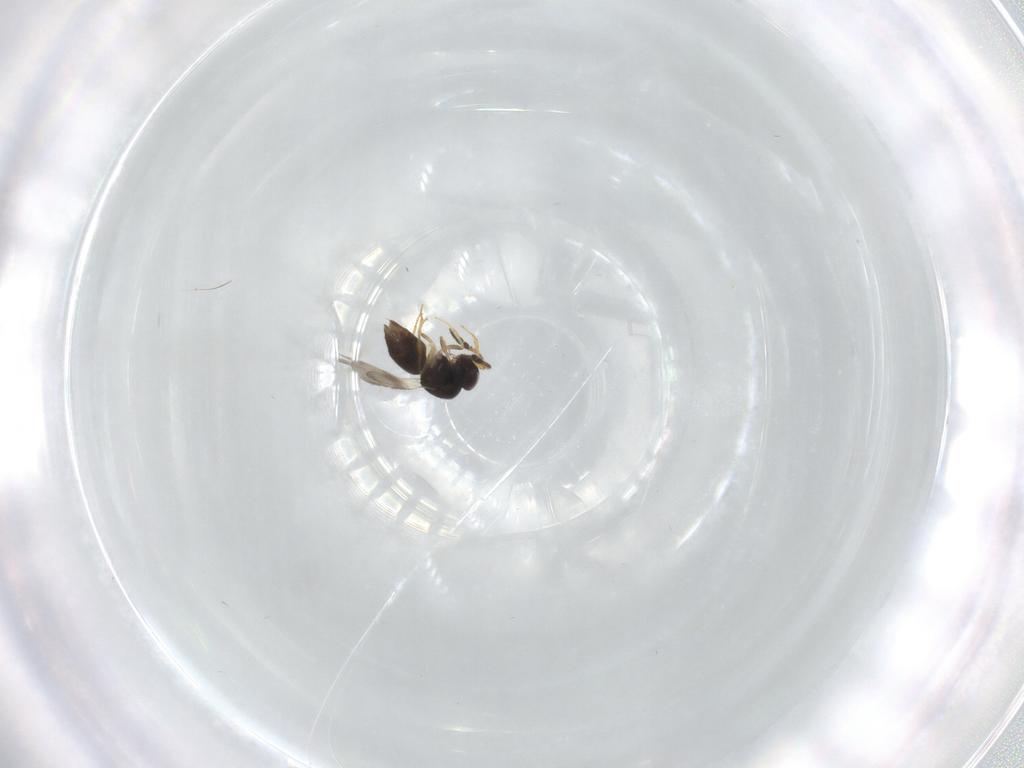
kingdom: Animalia
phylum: Arthropoda
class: Insecta
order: Hymenoptera
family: Bethylidae
